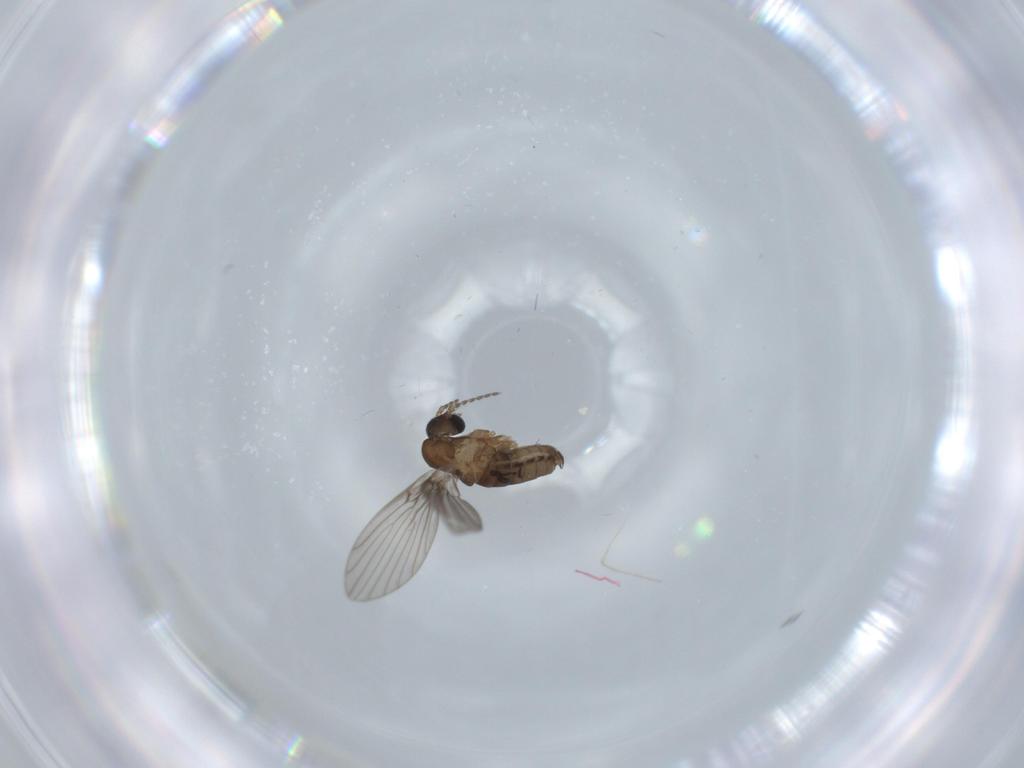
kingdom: Animalia
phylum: Arthropoda
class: Insecta
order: Diptera
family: Psychodidae
